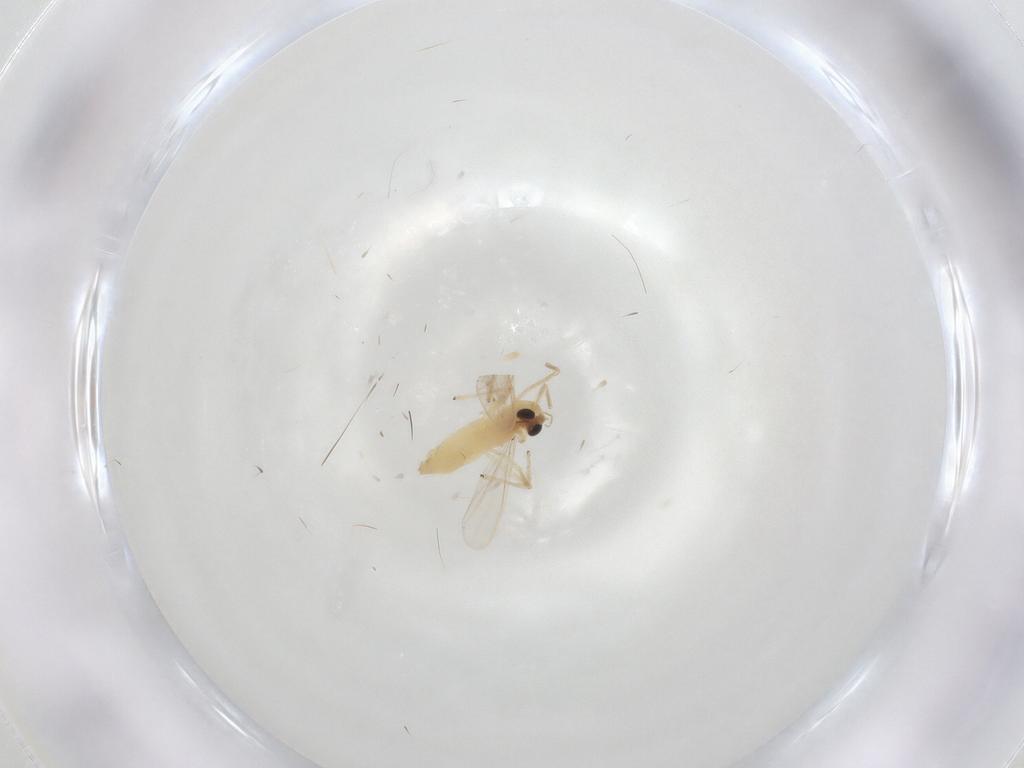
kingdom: Animalia
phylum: Arthropoda
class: Insecta
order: Diptera
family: Chironomidae
